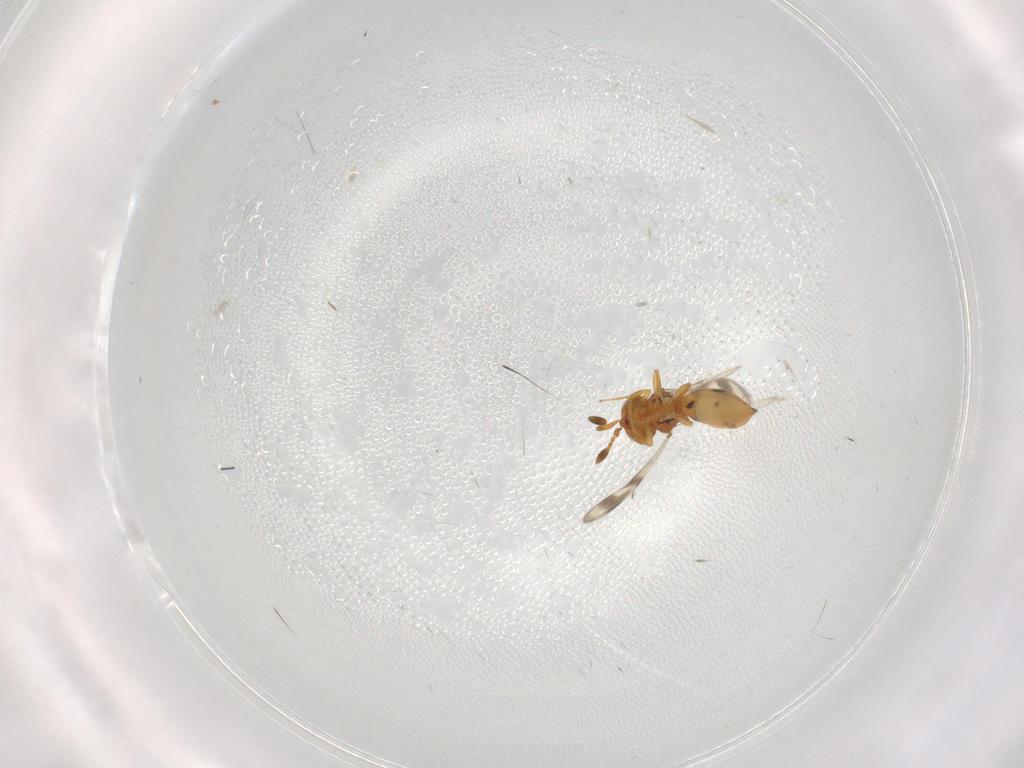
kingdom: Animalia
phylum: Arthropoda
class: Insecta
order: Hymenoptera
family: Scelionidae
